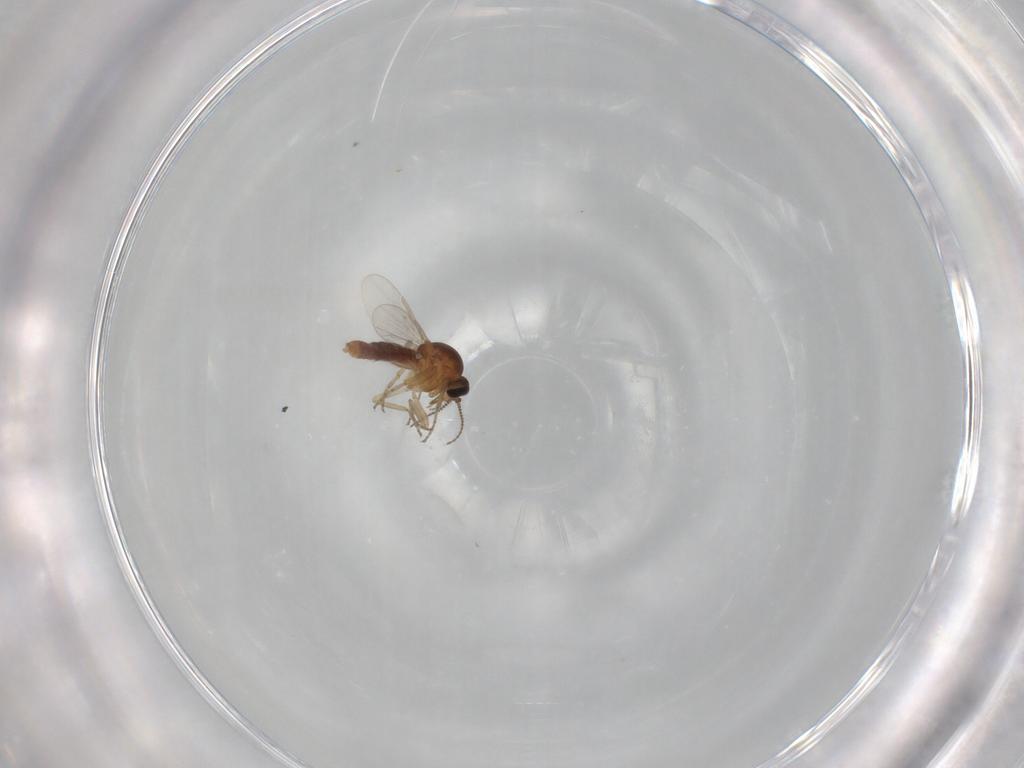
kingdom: Animalia
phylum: Arthropoda
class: Insecta
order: Diptera
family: Ceratopogonidae
